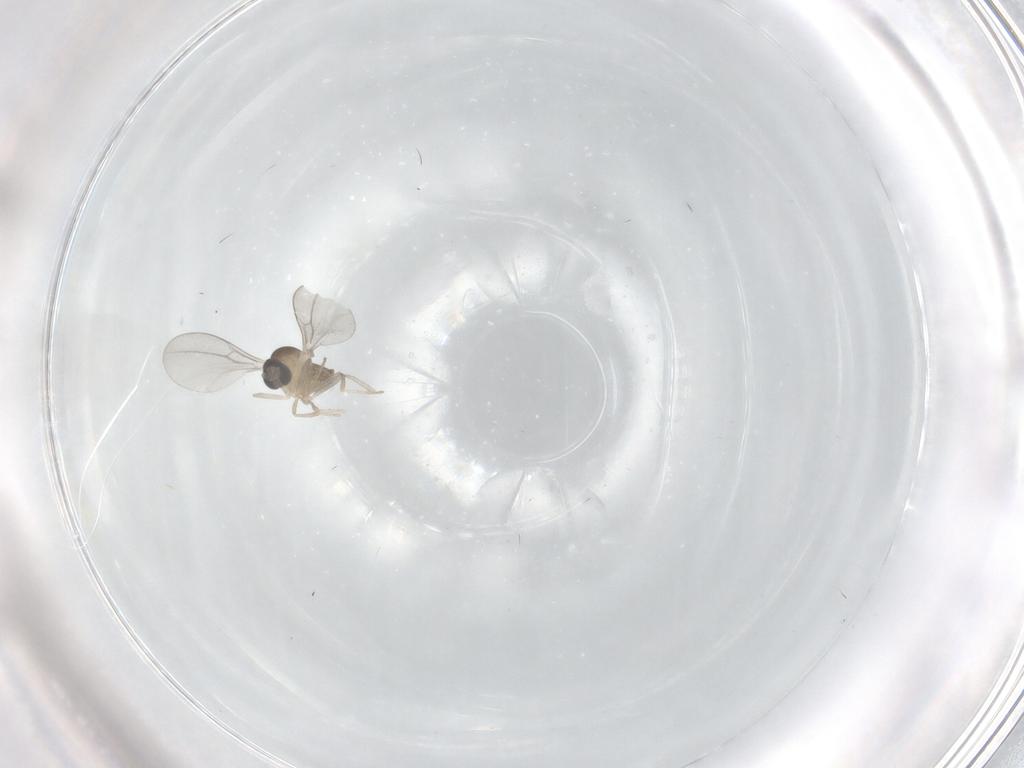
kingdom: Animalia
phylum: Arthropoda
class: Insecta
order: Diptera
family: Cecidomyiidae
